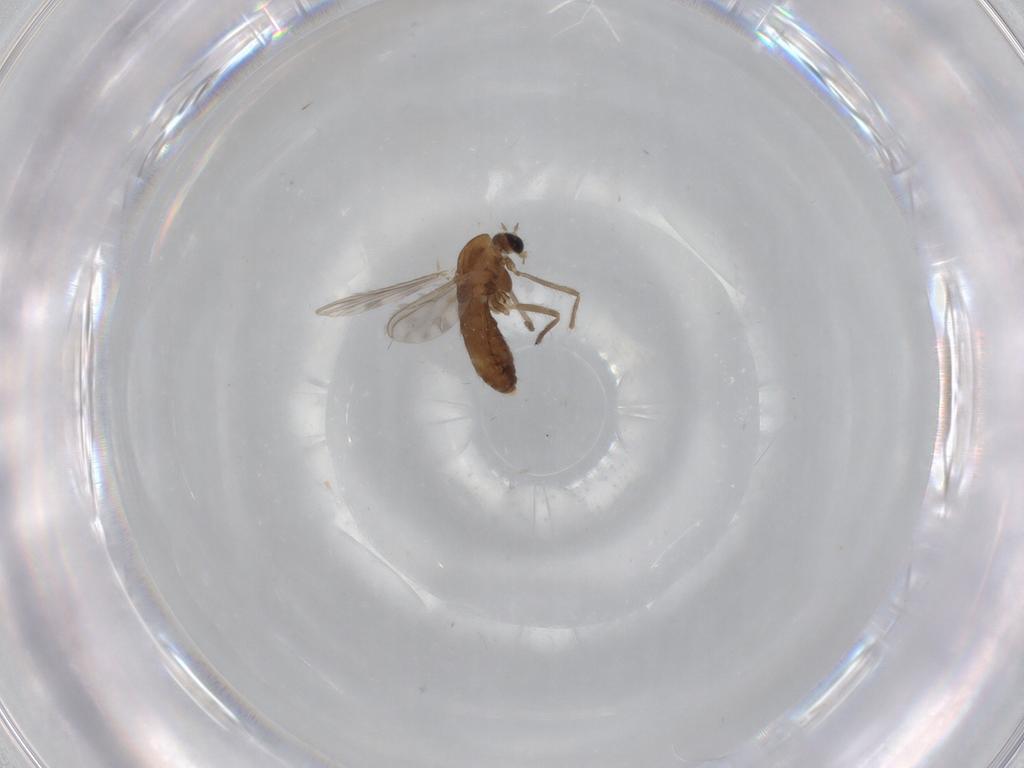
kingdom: Animalia
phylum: Arthropoda
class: Insecta
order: Diptera
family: Chironomidae
